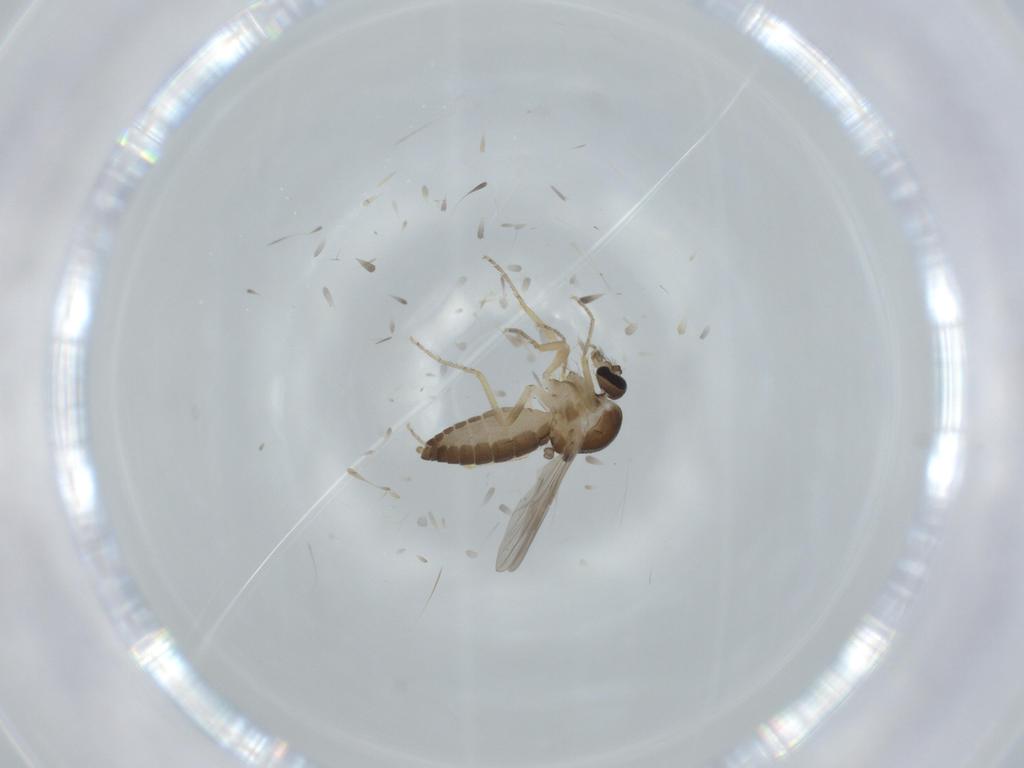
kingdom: Animalia
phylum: Arthropoda
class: Insecta
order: Diptera
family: Ceratopogonidae
